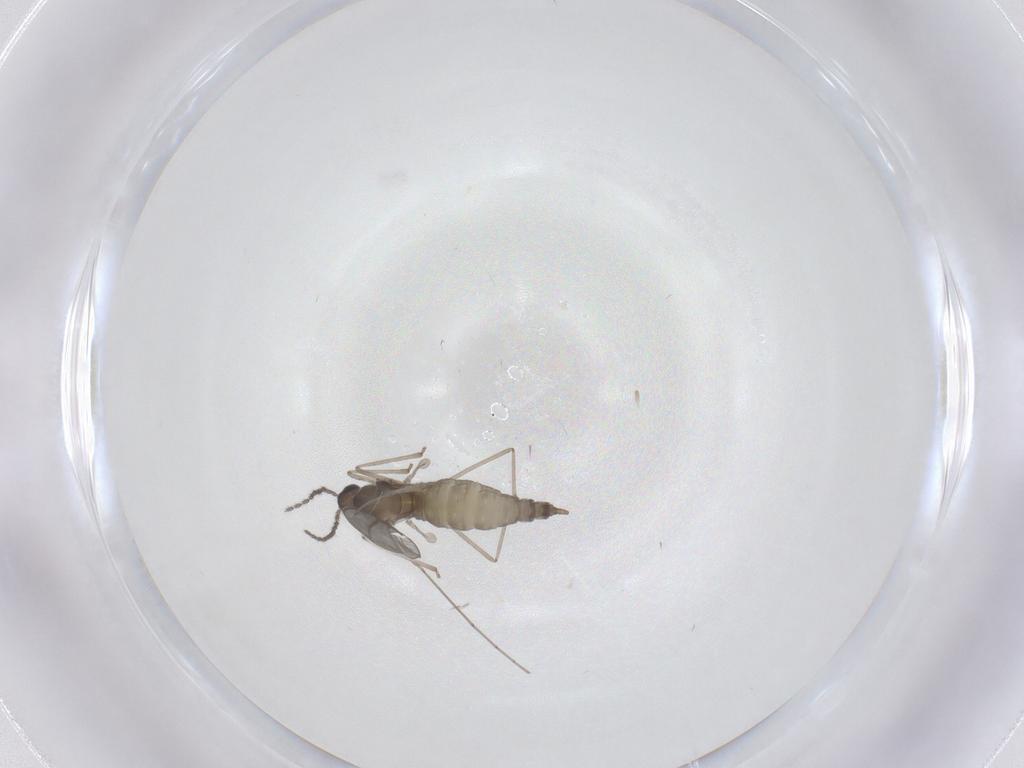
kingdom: Animalia
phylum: Arthropoda
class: Insecta
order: Diptera
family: Cecidomyiidae
